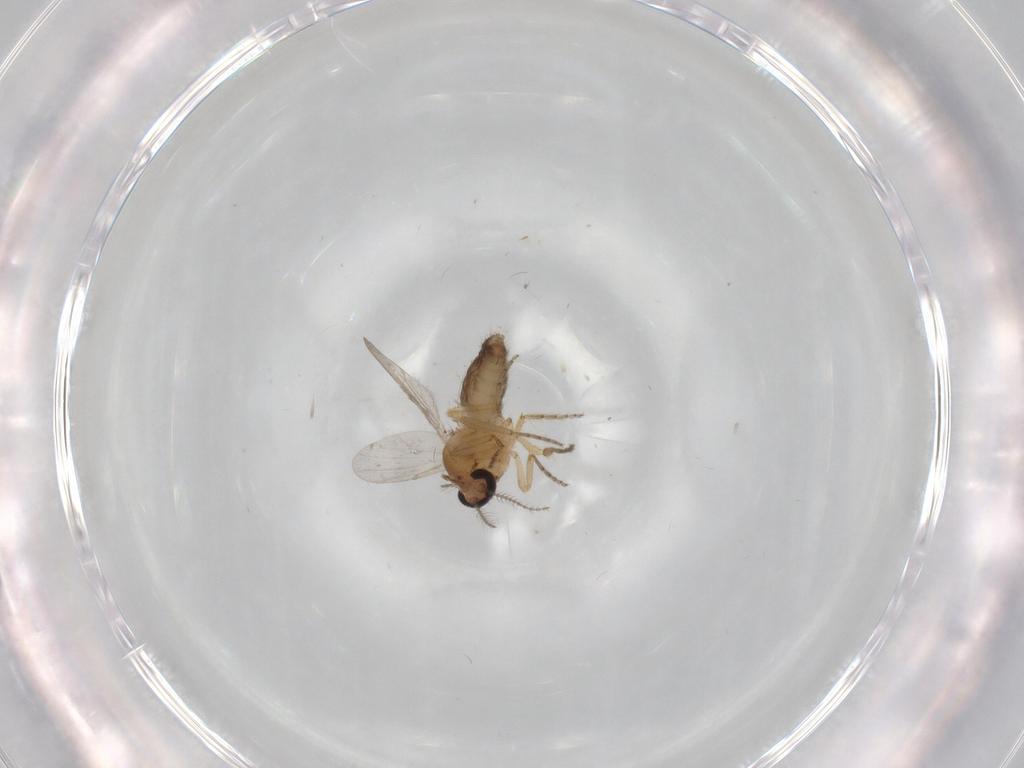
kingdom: Animalia
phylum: Arthropoda
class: Insecta
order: Diptera
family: Ceratopogonidae
